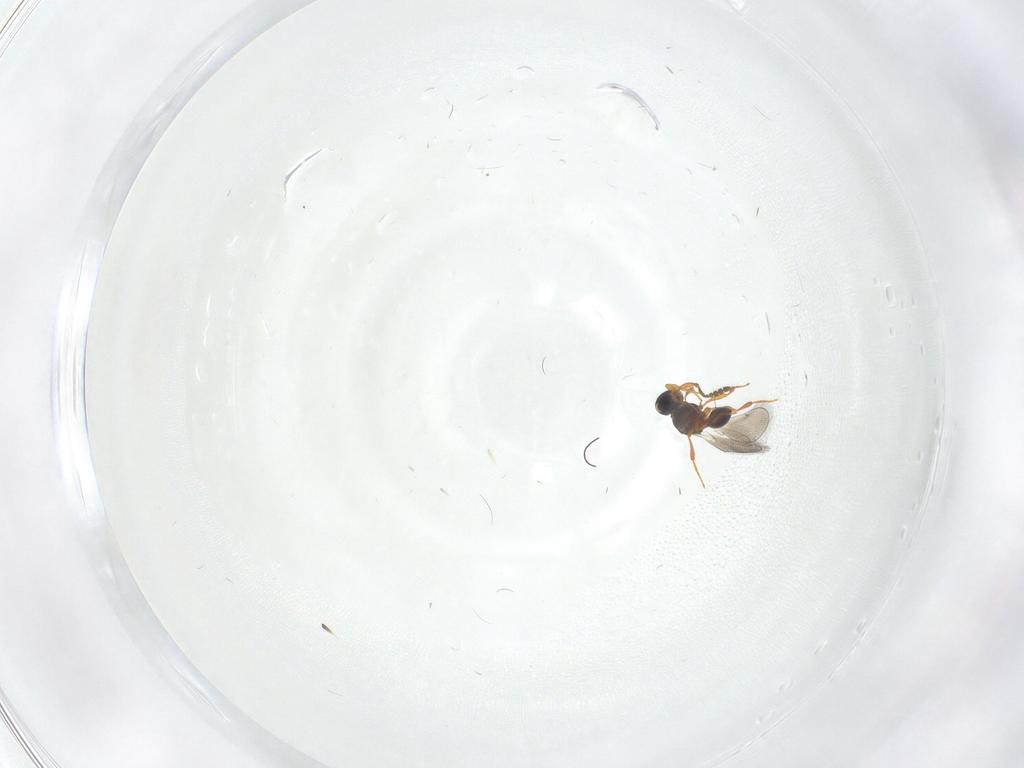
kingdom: Animalia
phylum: Arthropoda
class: Insecta
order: Hymenoptera
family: Platygastridae
